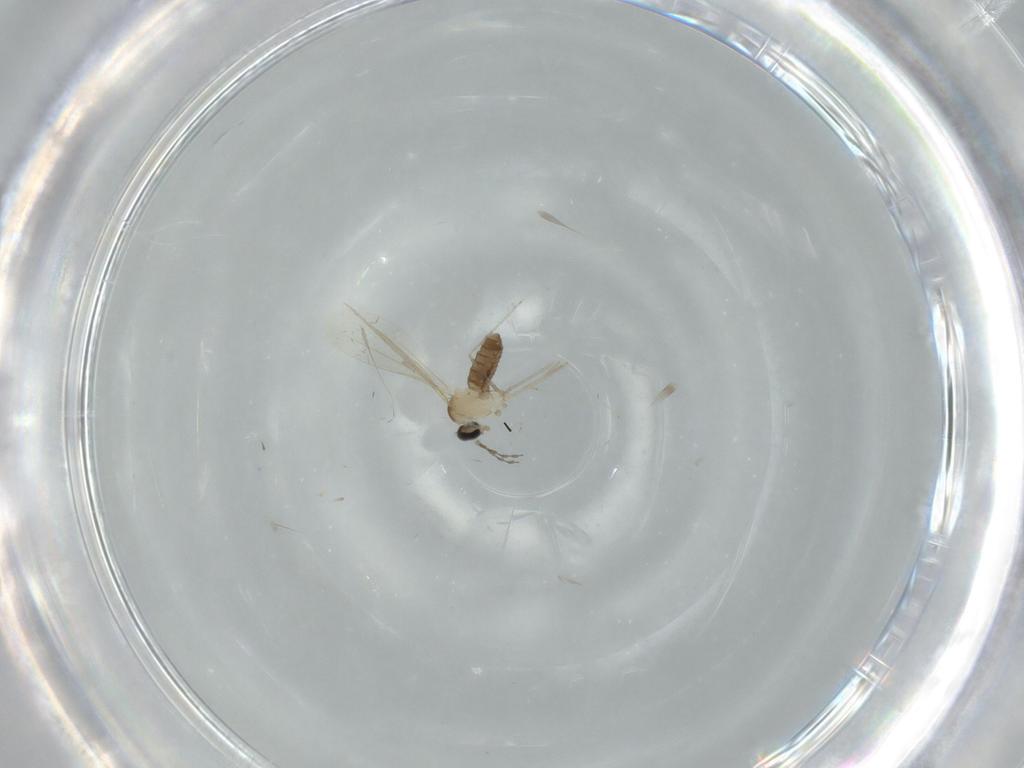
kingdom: Animalia
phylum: Arthropoda
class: Insecta
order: Diptera
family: Cecidomyiidae
